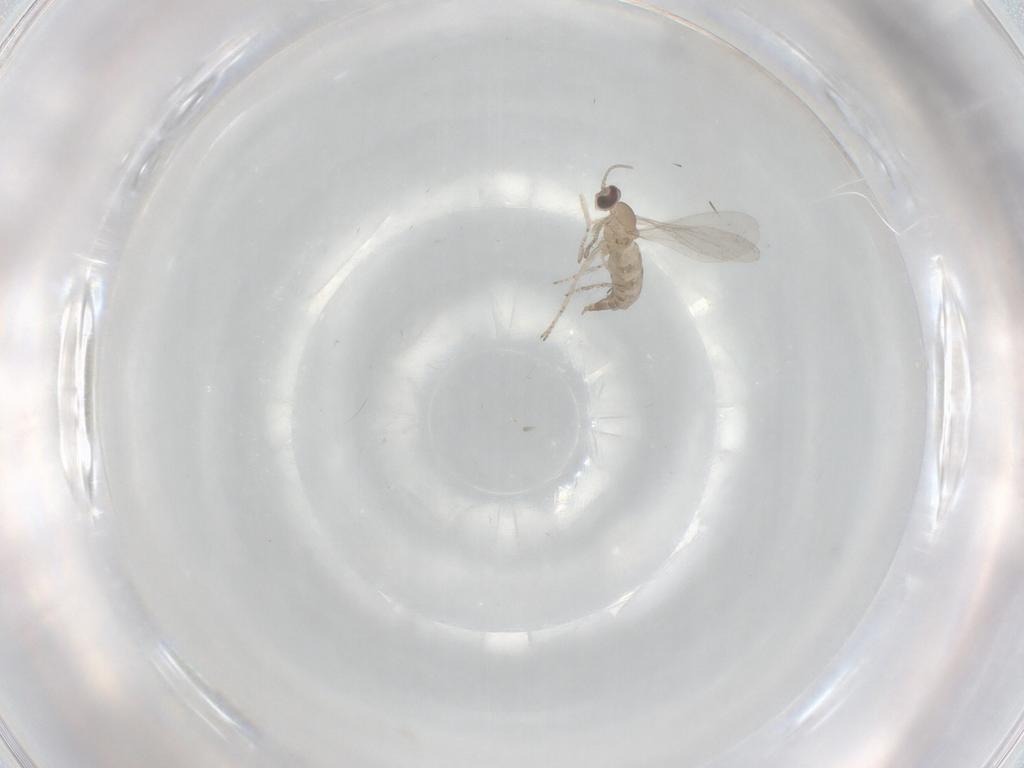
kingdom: Animalia
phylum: Arthropoda
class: Insecta
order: Diptera
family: Cecidomyiidae
